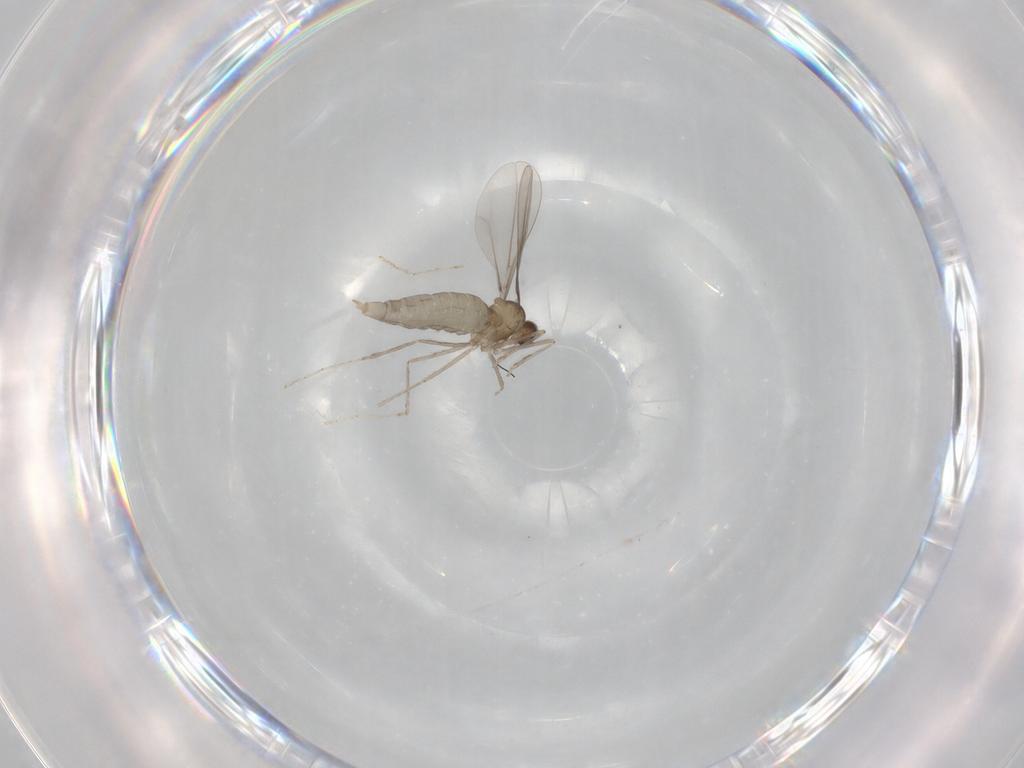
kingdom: Animalia
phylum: Arthropoda
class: Insecta
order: Diptera
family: Cecidomyiidae
